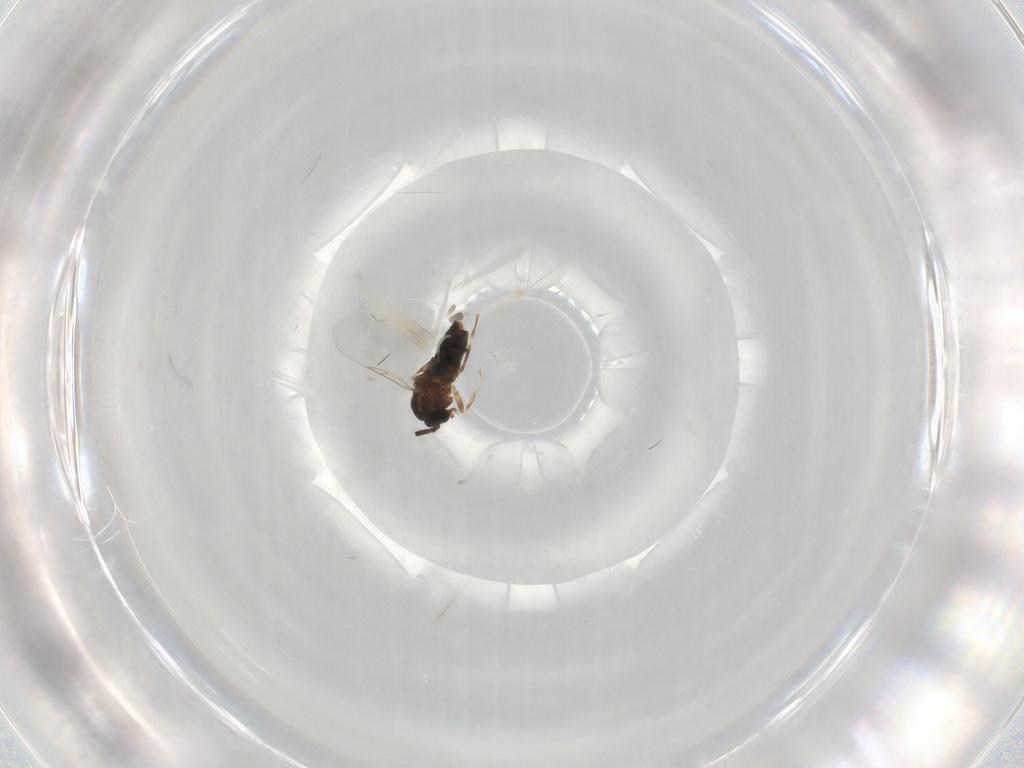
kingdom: Animalia
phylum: Arthropoda
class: Insecta
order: Diptera
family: Scatopsidae
